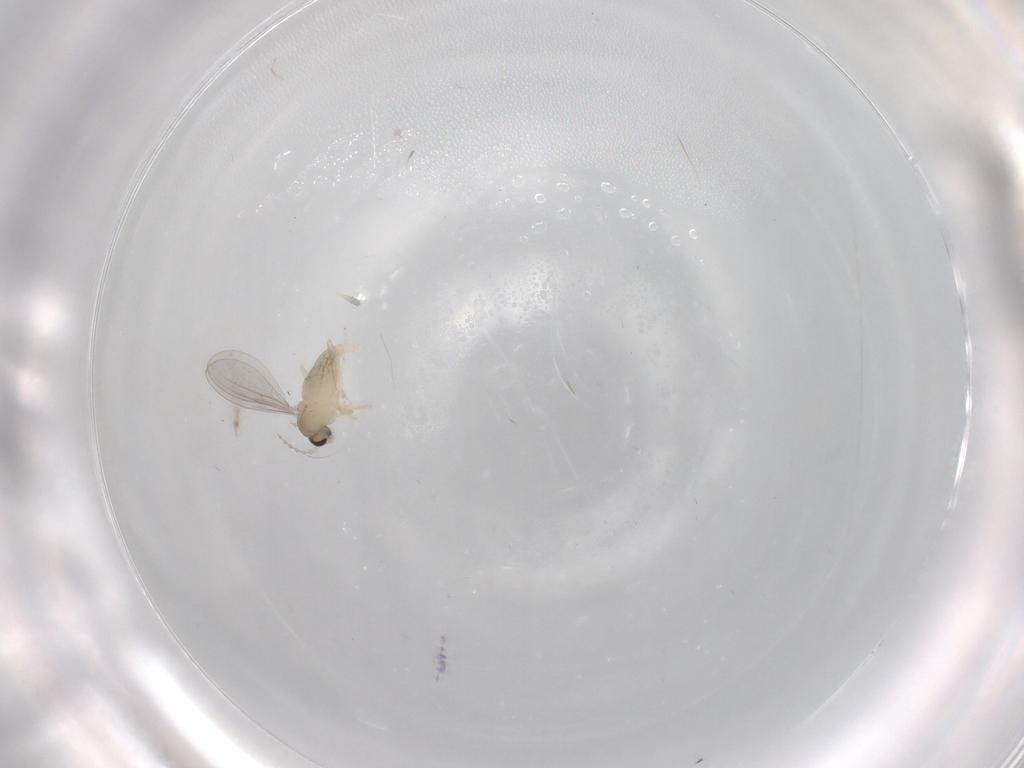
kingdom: Animalia
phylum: Arthropoda
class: Insecta
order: Diptera
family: Cecidomyiidae
